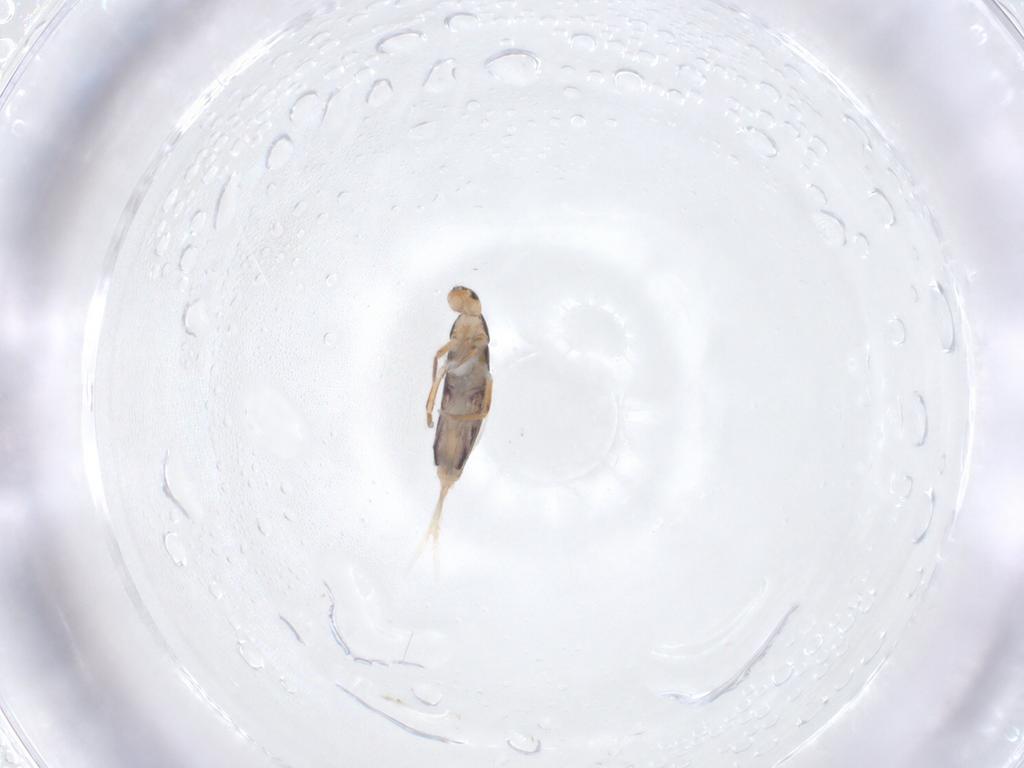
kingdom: Animalia
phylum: Arthropoda
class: Collembola
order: Entomobryomorpha
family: Entomobryidae
